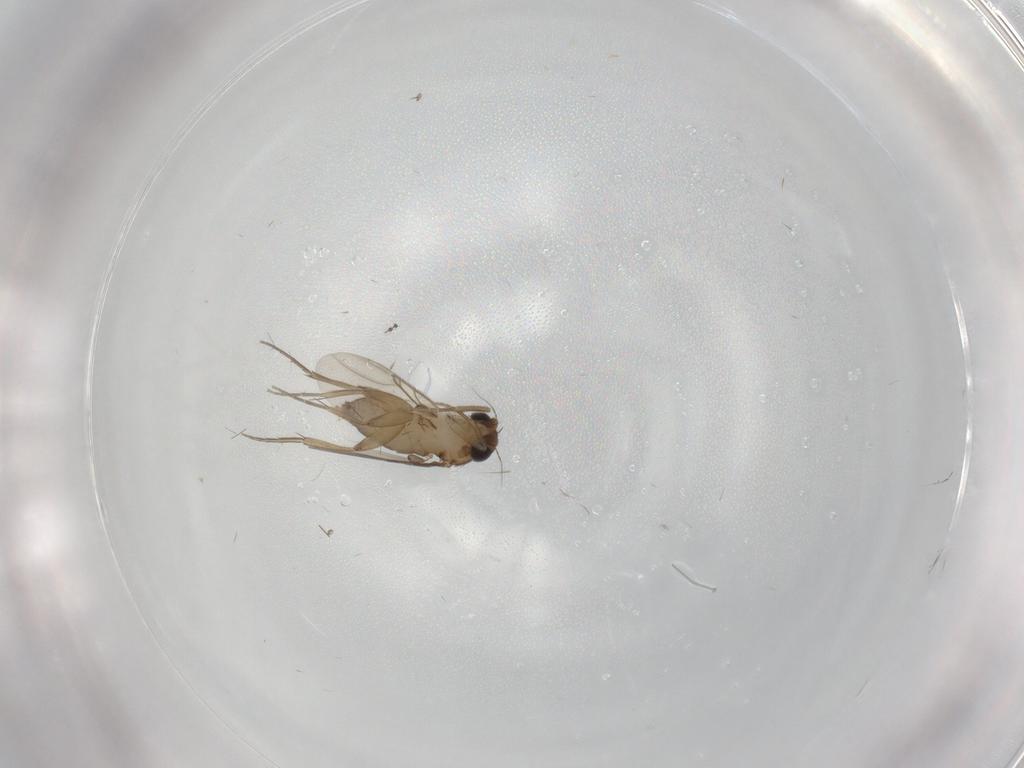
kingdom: Animalia
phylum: Arthropoda
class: Insecta
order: Diptera
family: Phoridae
